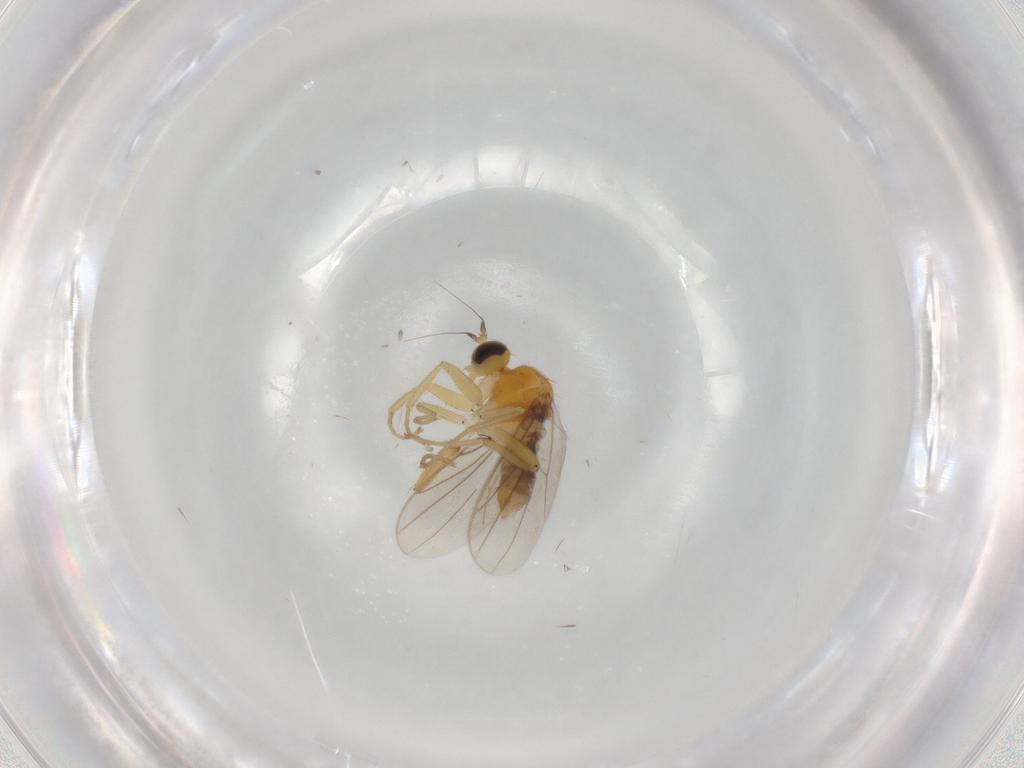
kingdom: Animalia
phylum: Arthropoda
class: Insecta
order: Diptera
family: Hybotidae
